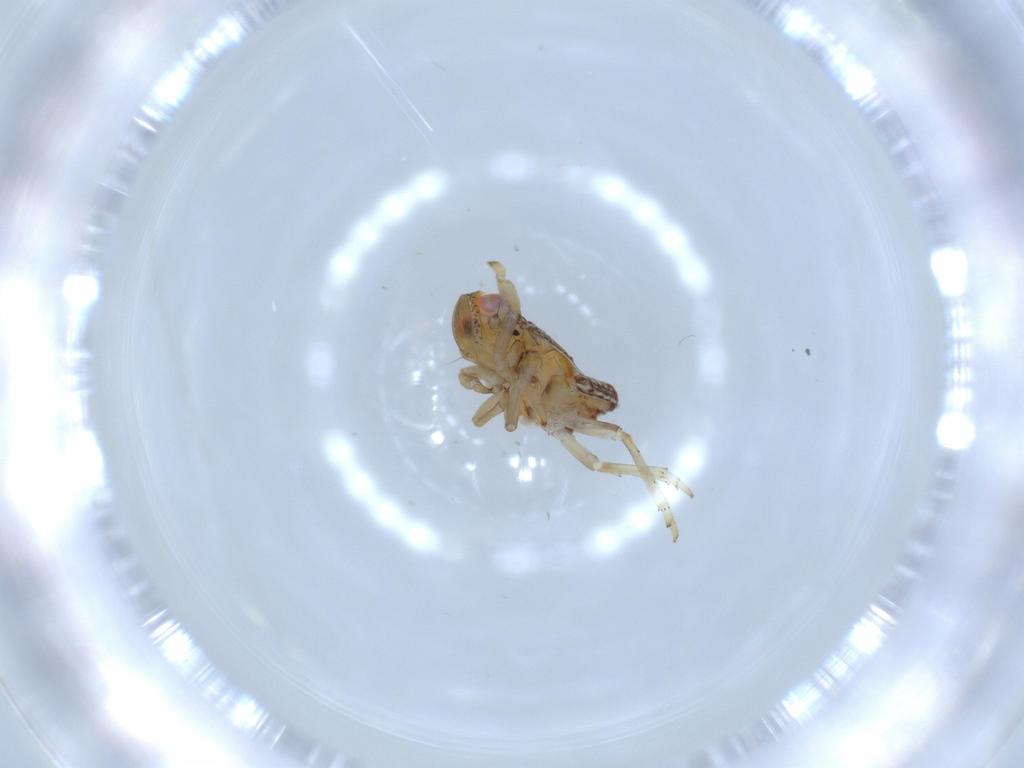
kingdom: Animalia
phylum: Arthropoda
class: Insecta
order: Hemiptera
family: Issidae
